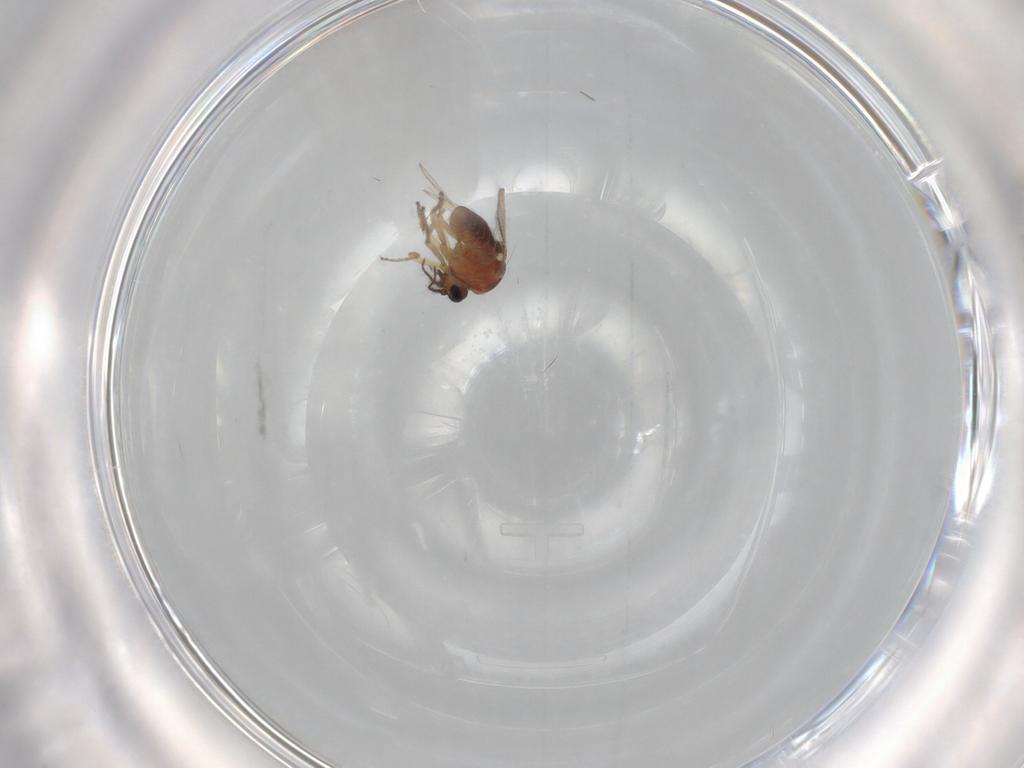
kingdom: Animalia
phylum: Arthropoda
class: Insecta
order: Diptera
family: Ceratopogonidae
